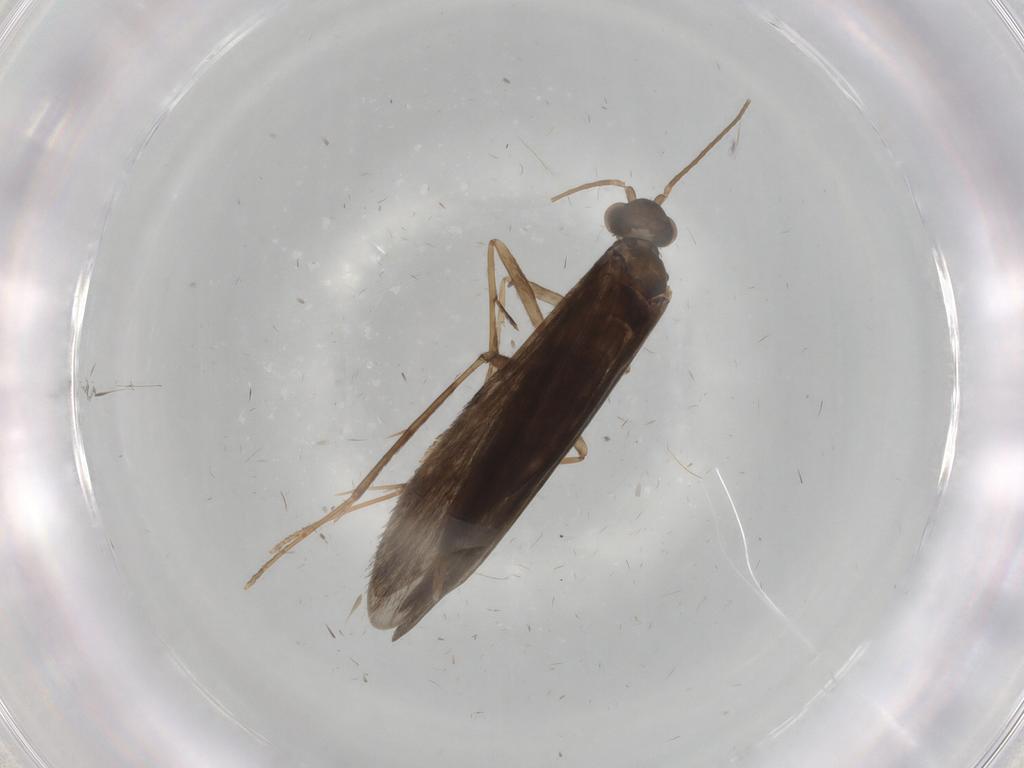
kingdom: Animalia
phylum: Arthropoda
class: Insecta
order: Trichoptera
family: Xiphocentronidae
